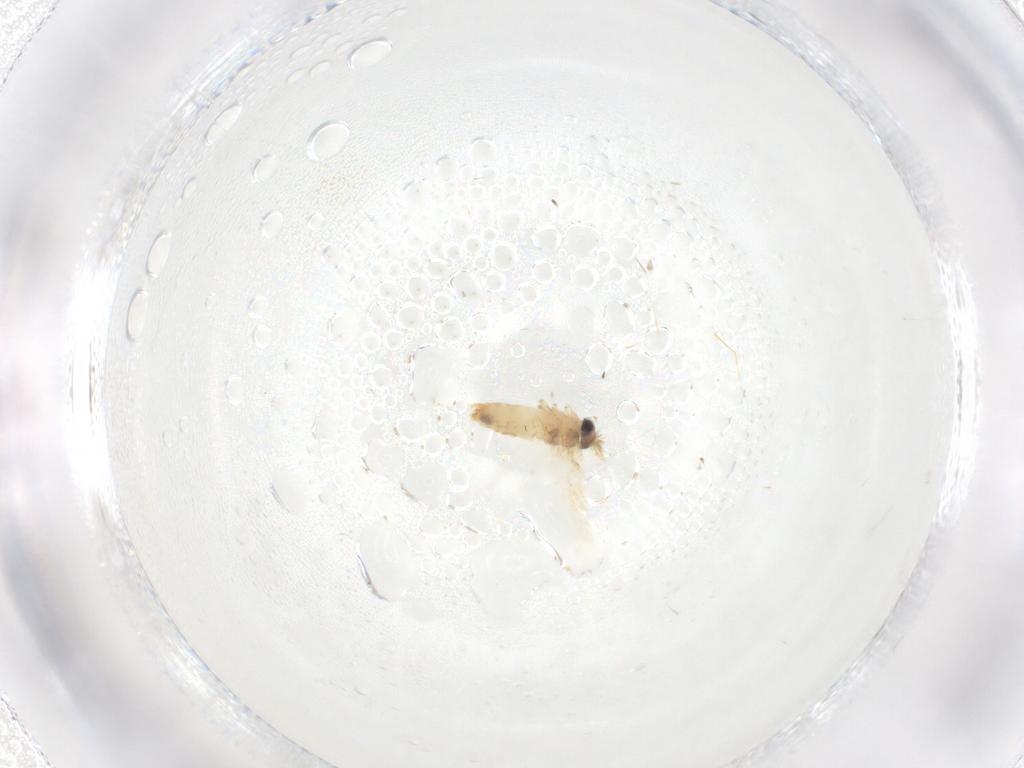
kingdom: Animalia
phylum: Arthropoda
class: Insecta
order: Lepidoptera
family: Crambidae
